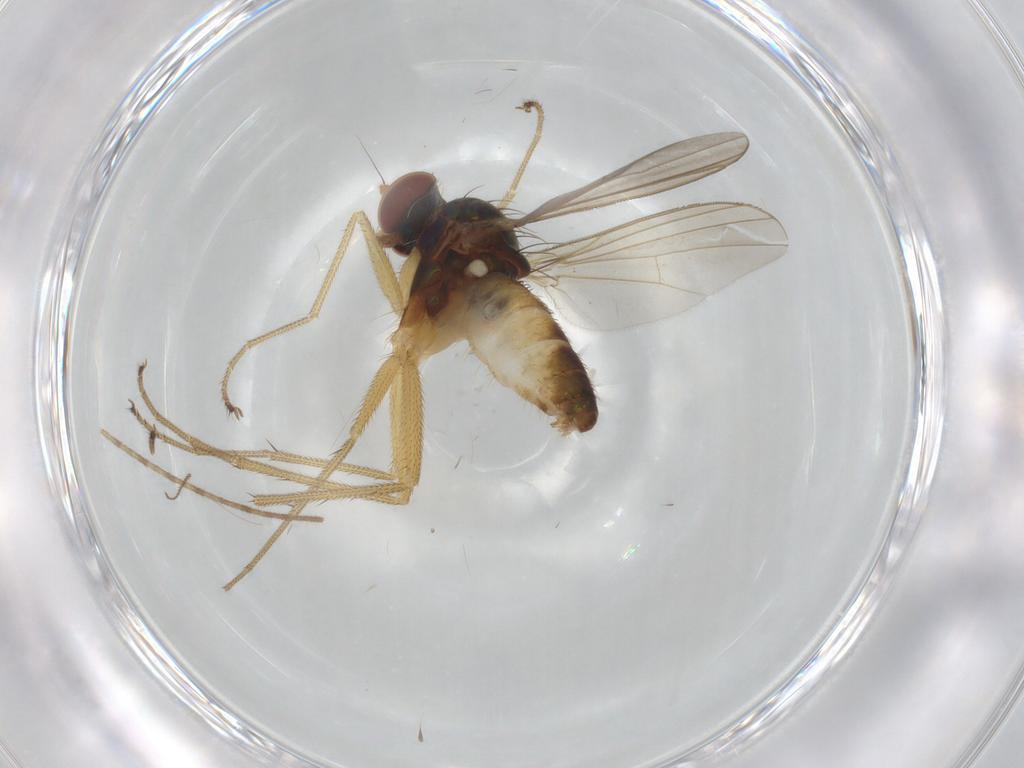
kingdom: Animalia
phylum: Arthropoda
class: Insecta
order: Diptera
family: Dolichopodidae
